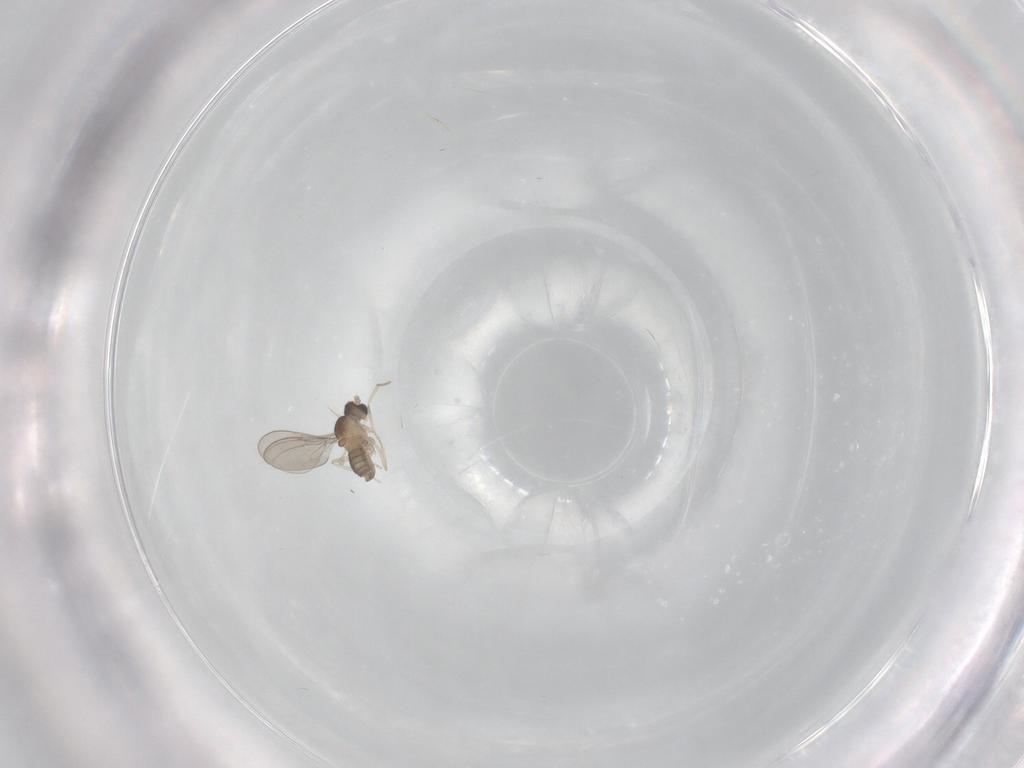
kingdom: Animalia
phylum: Arthropoda
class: Insecta
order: Diptera
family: Cecidomyiidae
